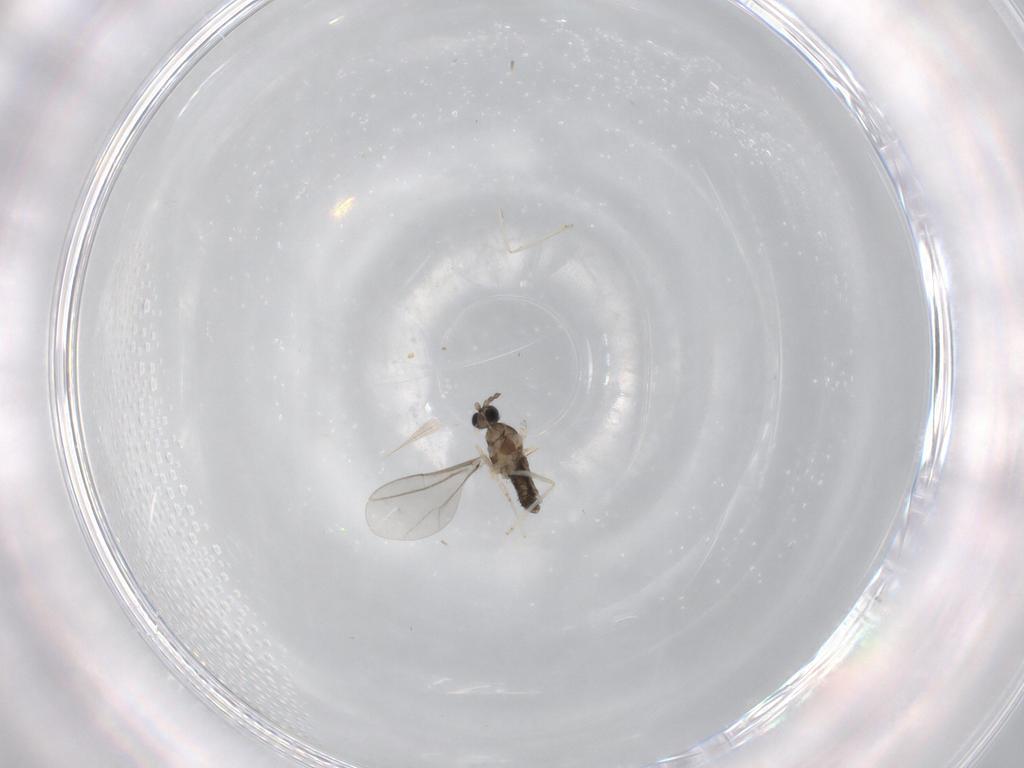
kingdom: Animalia
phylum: Arthropoda
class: Insecta
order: Diptera
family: Cecidomyiidae
